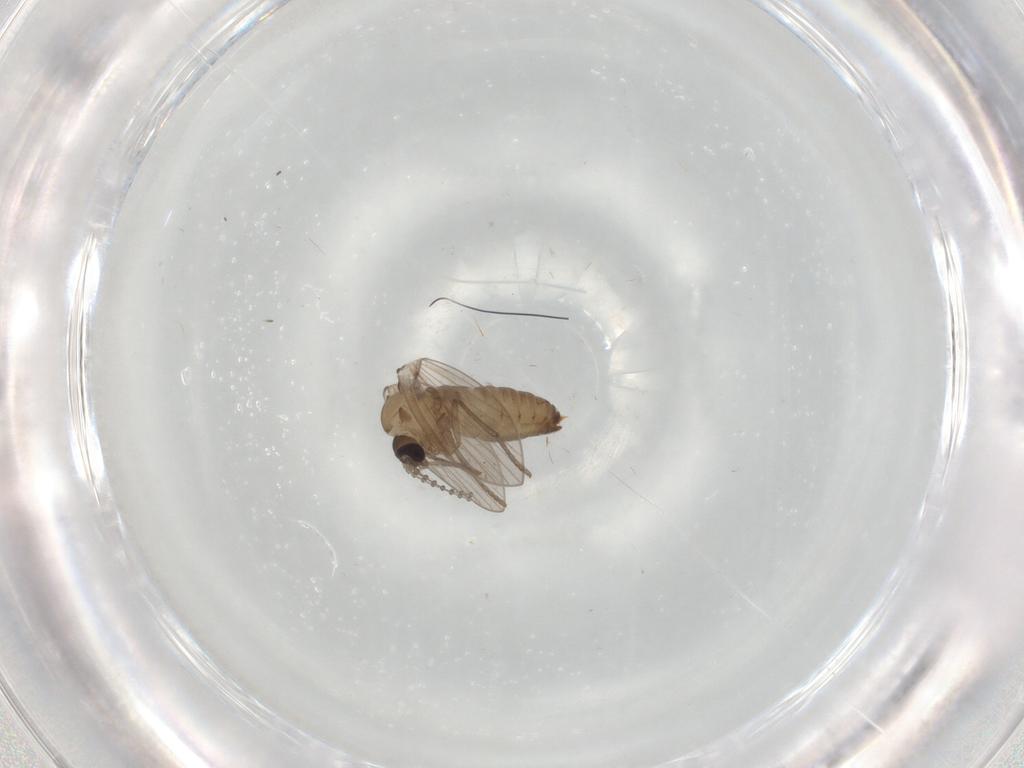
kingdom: Animalia
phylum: Arthropoda
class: Insecta
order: Diptera
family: Psychodidae
